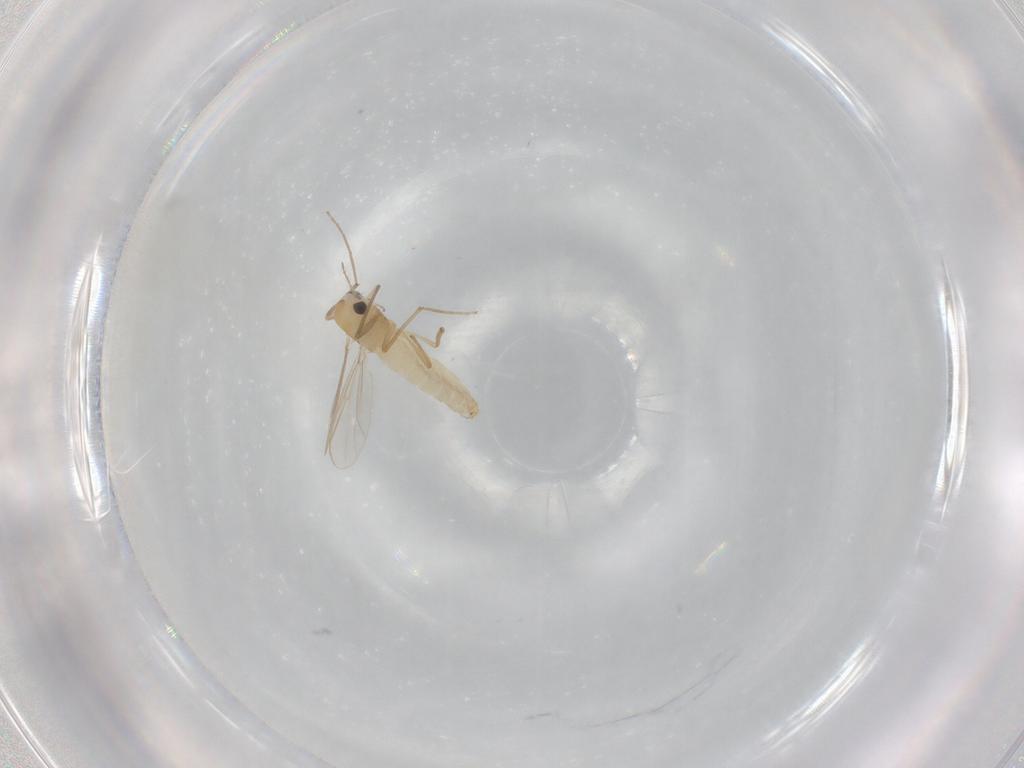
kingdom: Animalia
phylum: Arthropoda
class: Insecta
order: Diptera
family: Chironomidae
